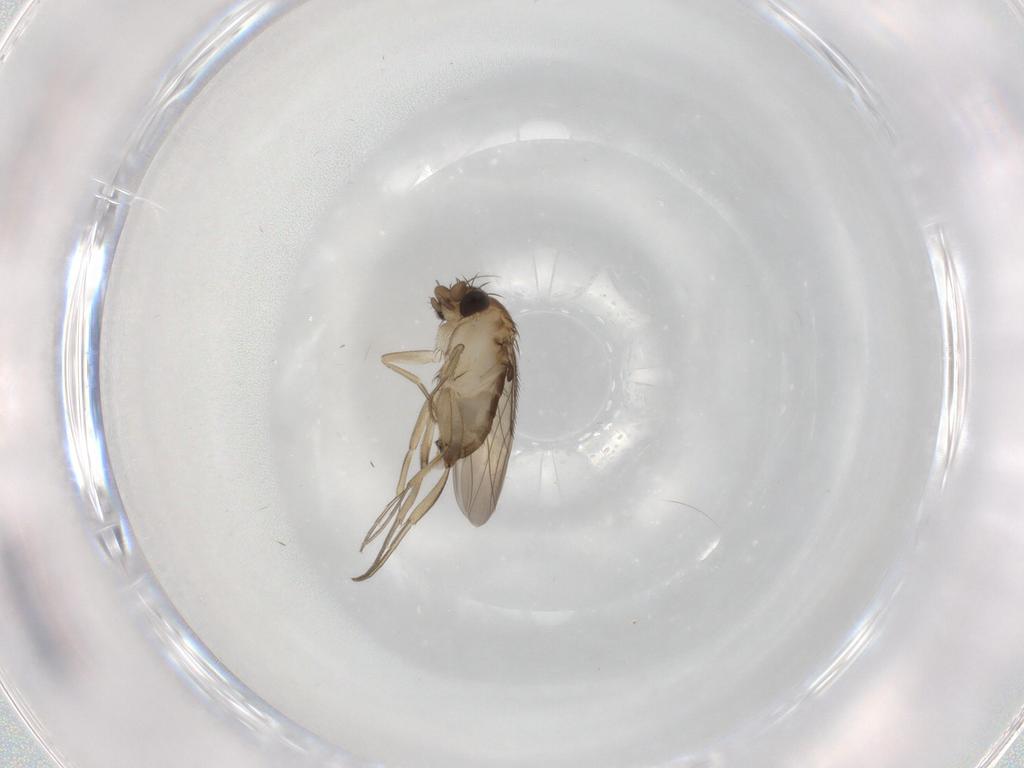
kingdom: Animalia
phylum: Arthropoda
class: Insecta
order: Diptera
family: Phoridae
